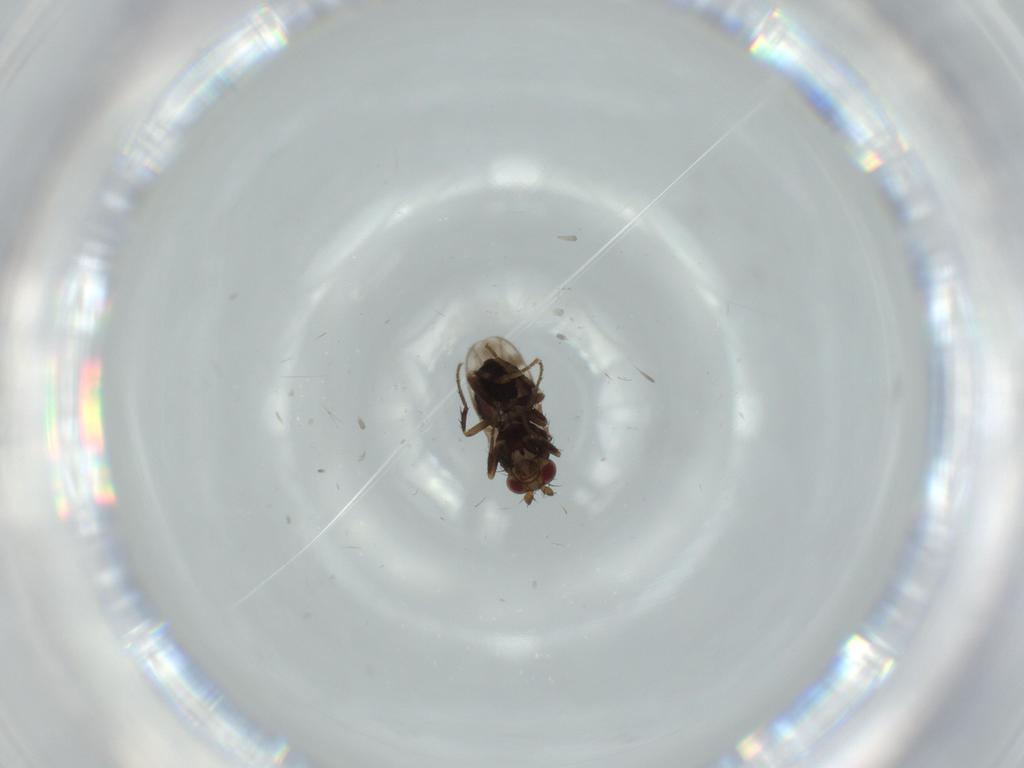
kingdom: Animalia
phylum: Arthropoda
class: Insecta
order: Diptera
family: Sphaeroceridae
